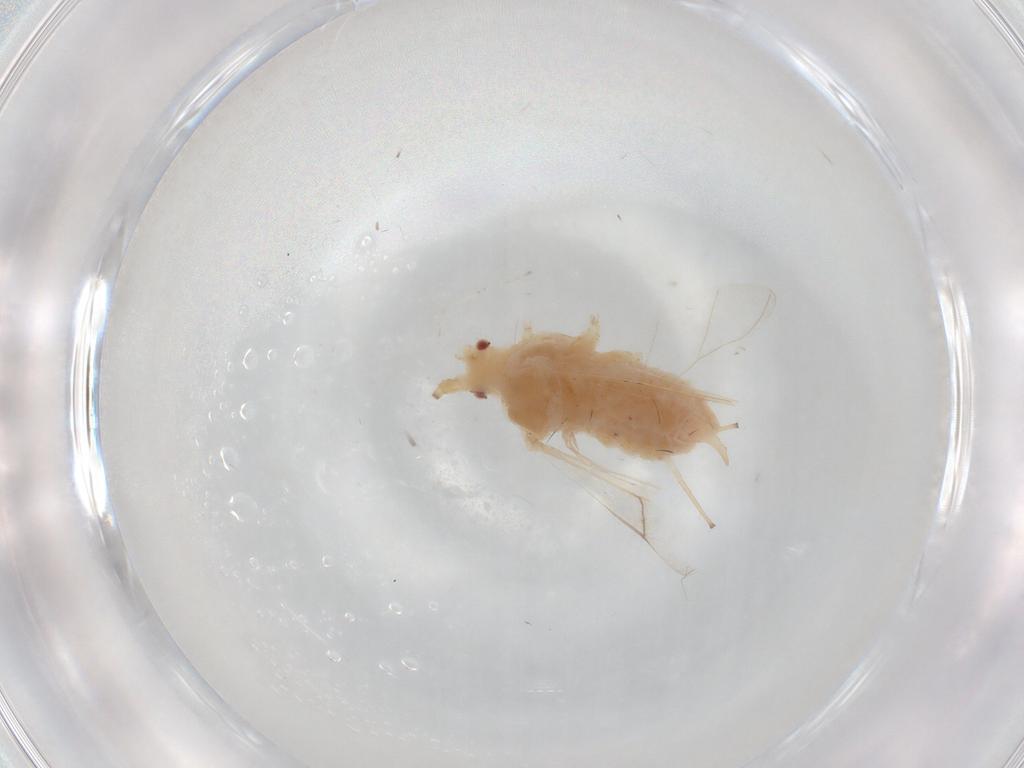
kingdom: Animalia
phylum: Arthropoda
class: Insecta
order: Hemiptera
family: Aphididae
